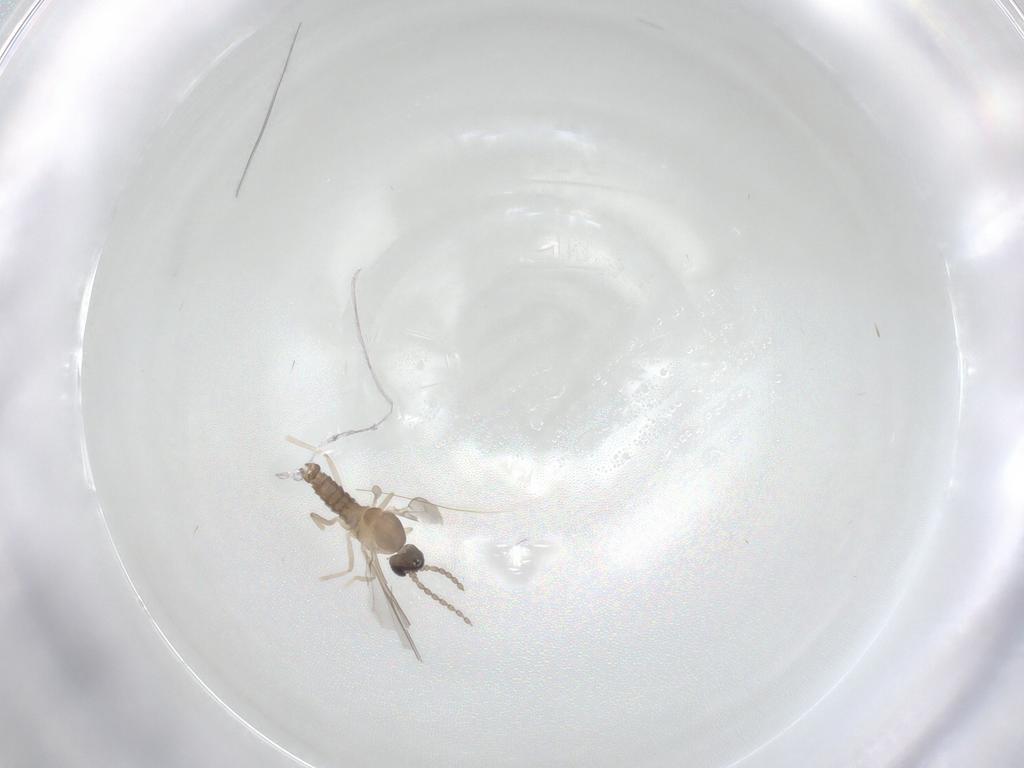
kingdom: Animalia
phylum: Arthropoda
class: Insecta
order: Diptera
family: Cecidomyiidae
